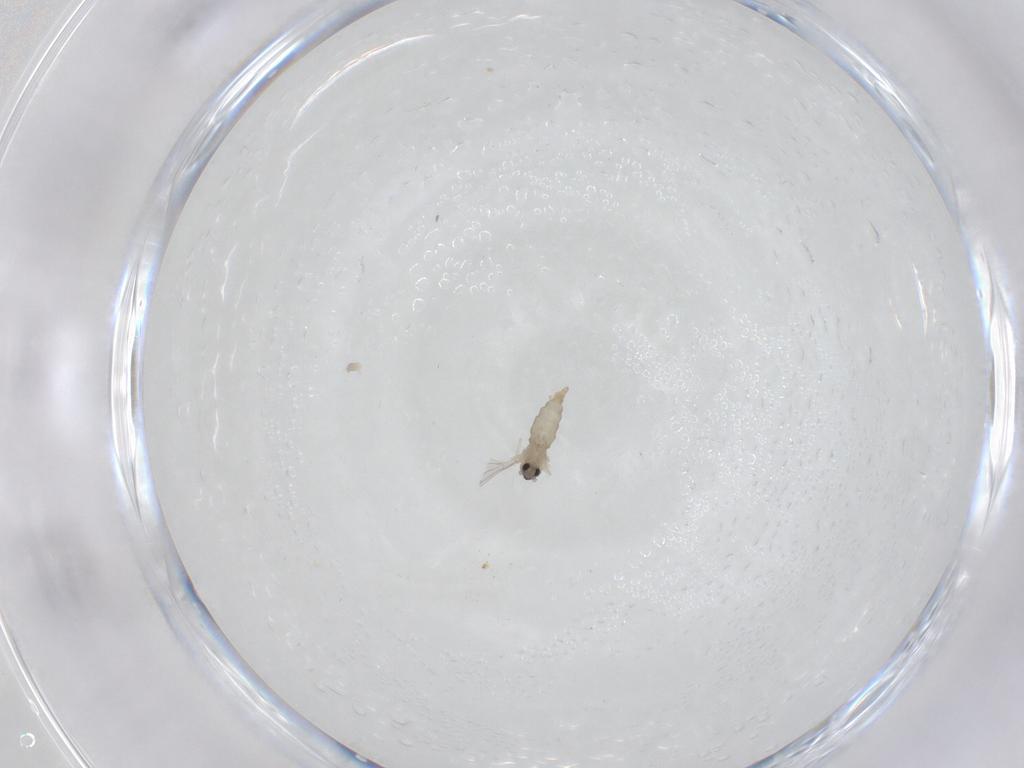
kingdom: Animalia
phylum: Arthropoda
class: Insecta
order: Diptera
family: Cecidomyiidae
